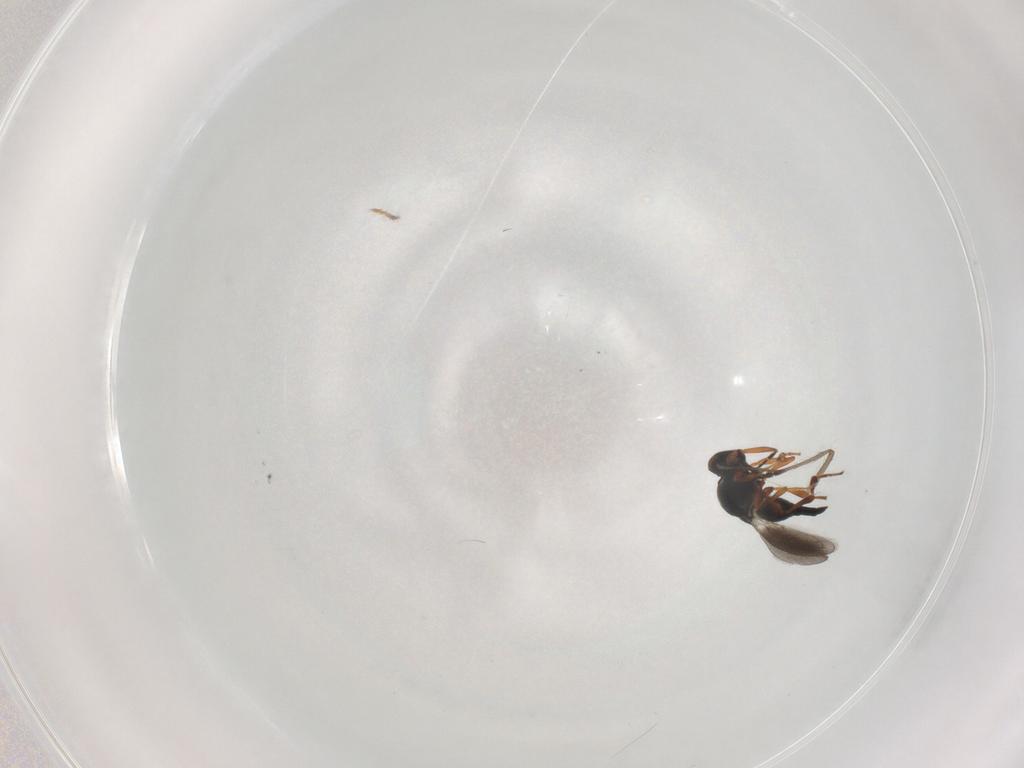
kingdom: Animalia
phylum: Arthropoda
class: Insecta
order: Hymenoptera
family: Platygastridae
